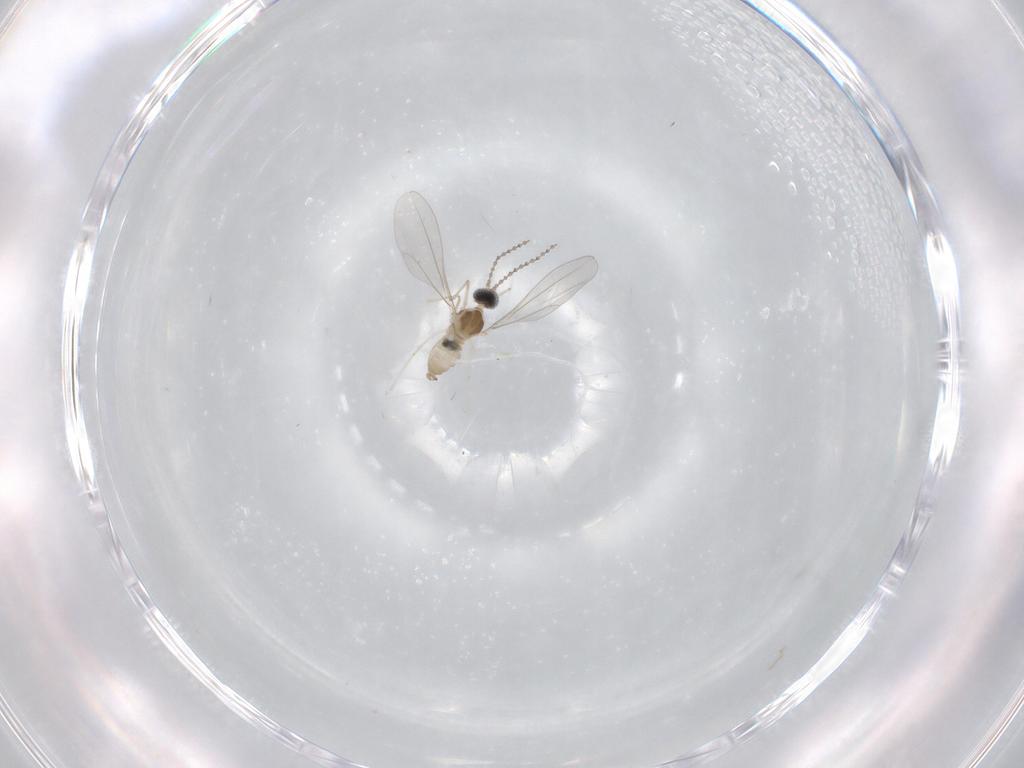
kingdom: Animalia
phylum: Arthropoda
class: Insecta
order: Diptera
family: Cecidomyiidae
